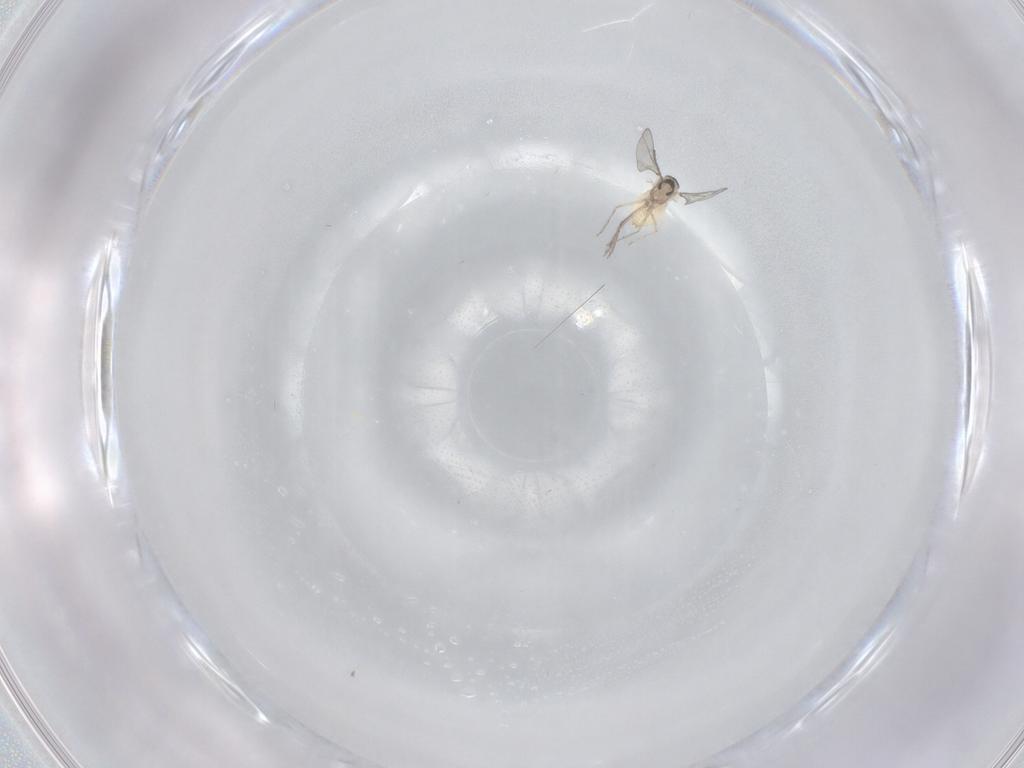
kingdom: Animalia
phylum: Arthropoda
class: Insecta
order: Diptera
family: Cecidomyiidae
